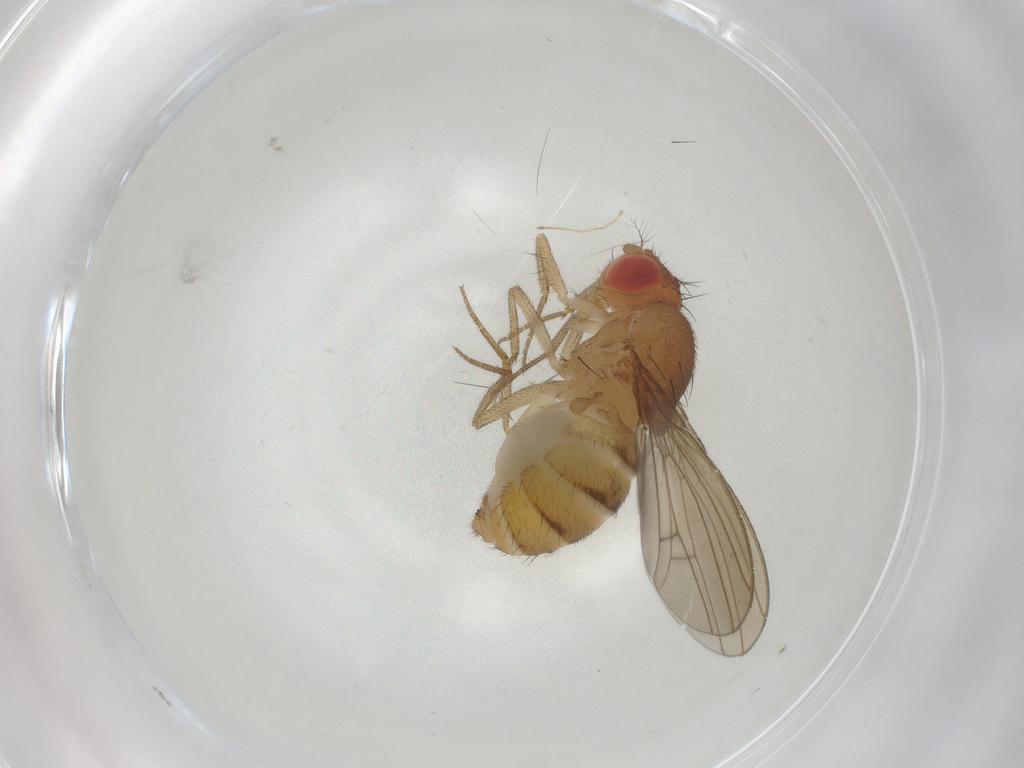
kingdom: Animalia
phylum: Arthropoda
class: Insecta
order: Diptera
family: Drosophilidae
